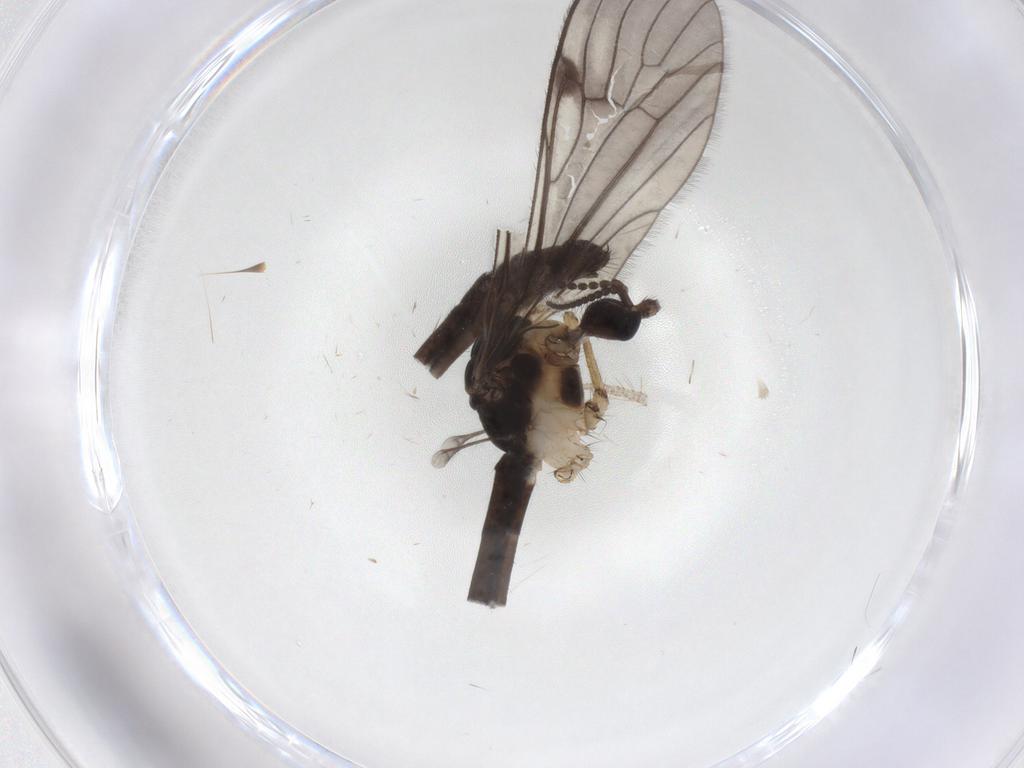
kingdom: Animalia
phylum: Arthropoda
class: Insecta
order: Diptera
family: Limoniidae
